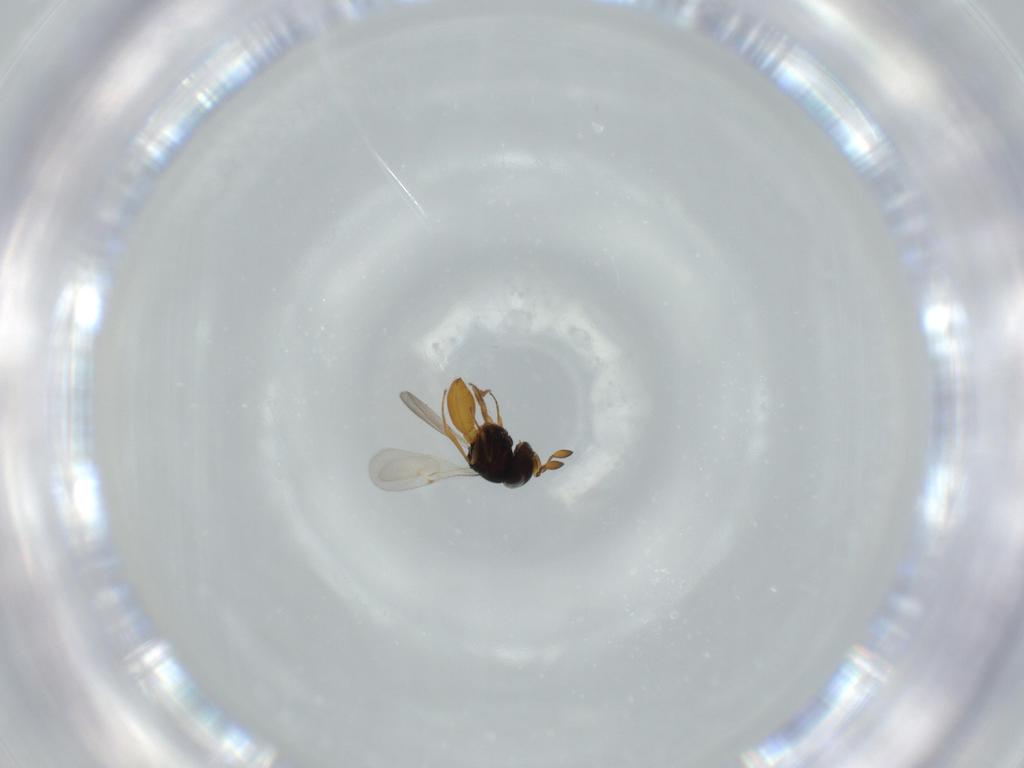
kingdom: Animalia
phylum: Arthropoda
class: Insecta
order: Hymenoptera
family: Scelionidae
